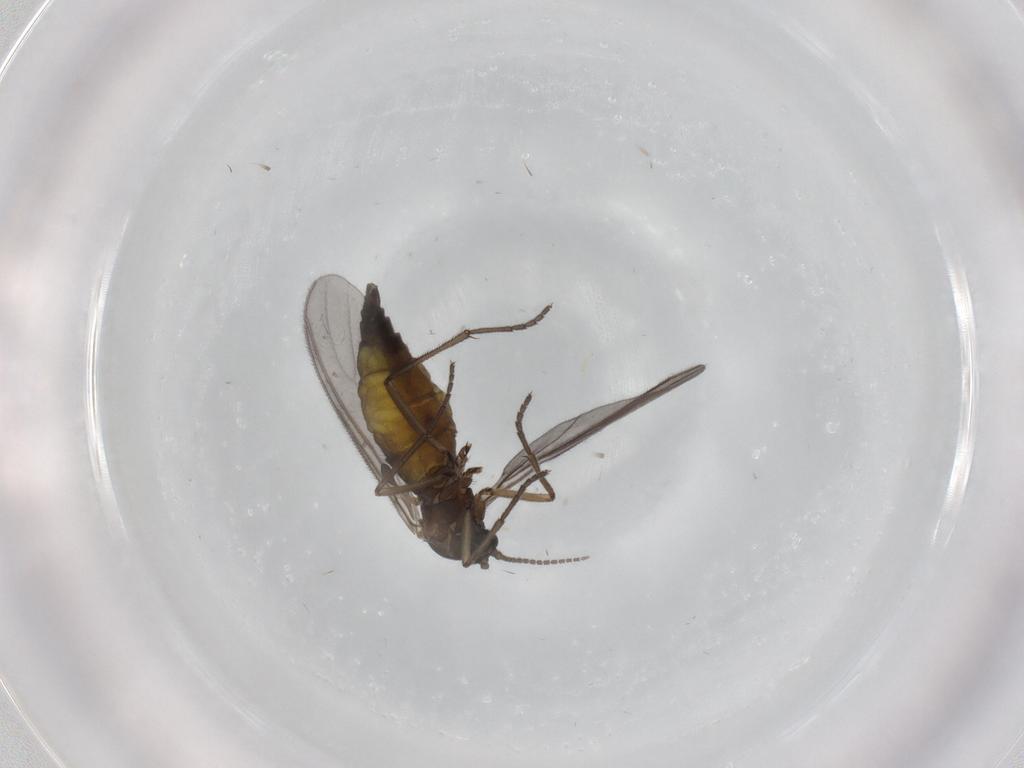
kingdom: Animalia
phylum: Arthropoda
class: Insecta
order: Diptera
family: Sciaridae
